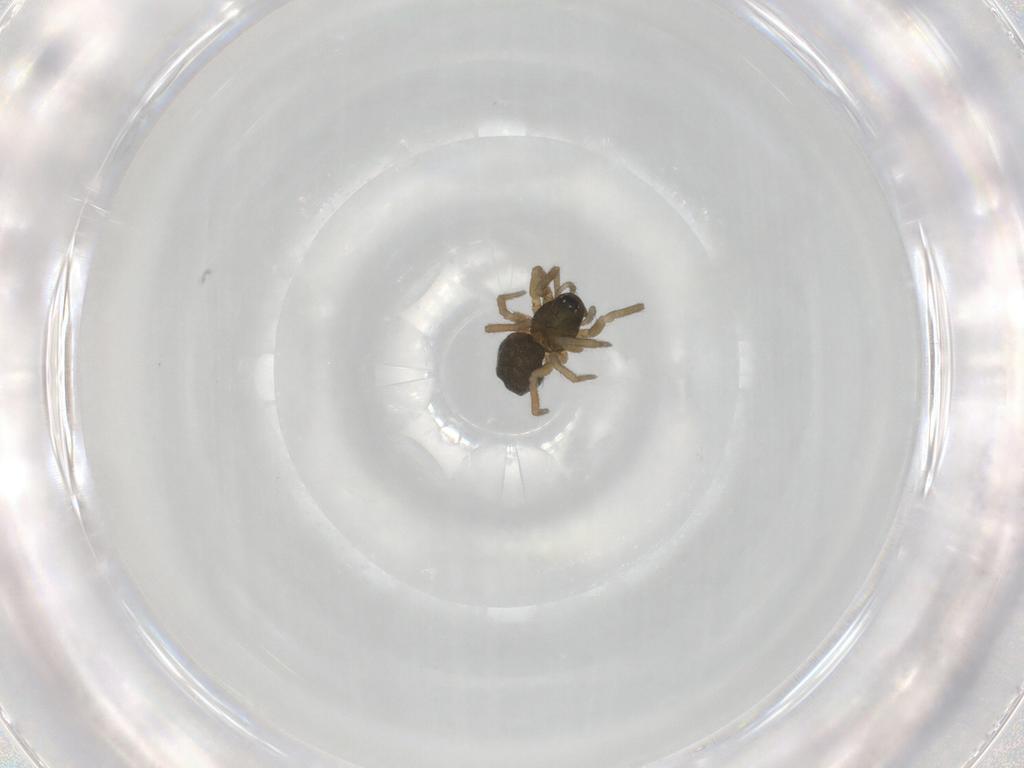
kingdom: Animalia
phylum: Arthropoda
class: Arachnida
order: Araneae
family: Linyphiidae
